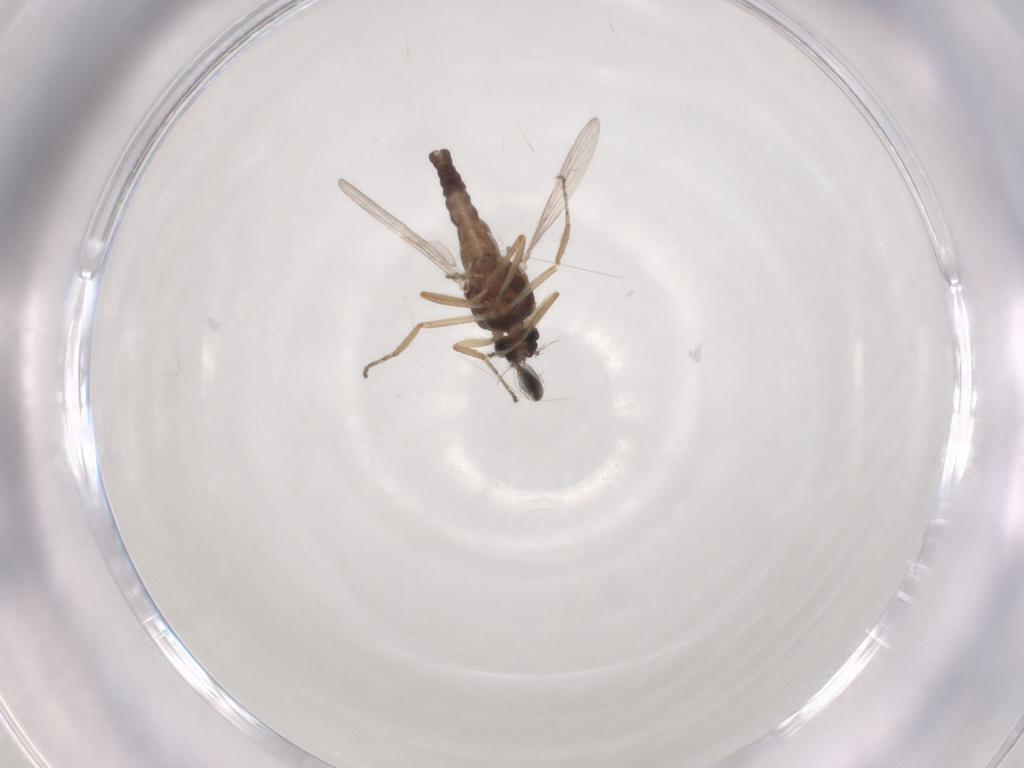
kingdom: Animalia
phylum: Arthropoda
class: Insecta
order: Diptera
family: Ceratopogonidae
